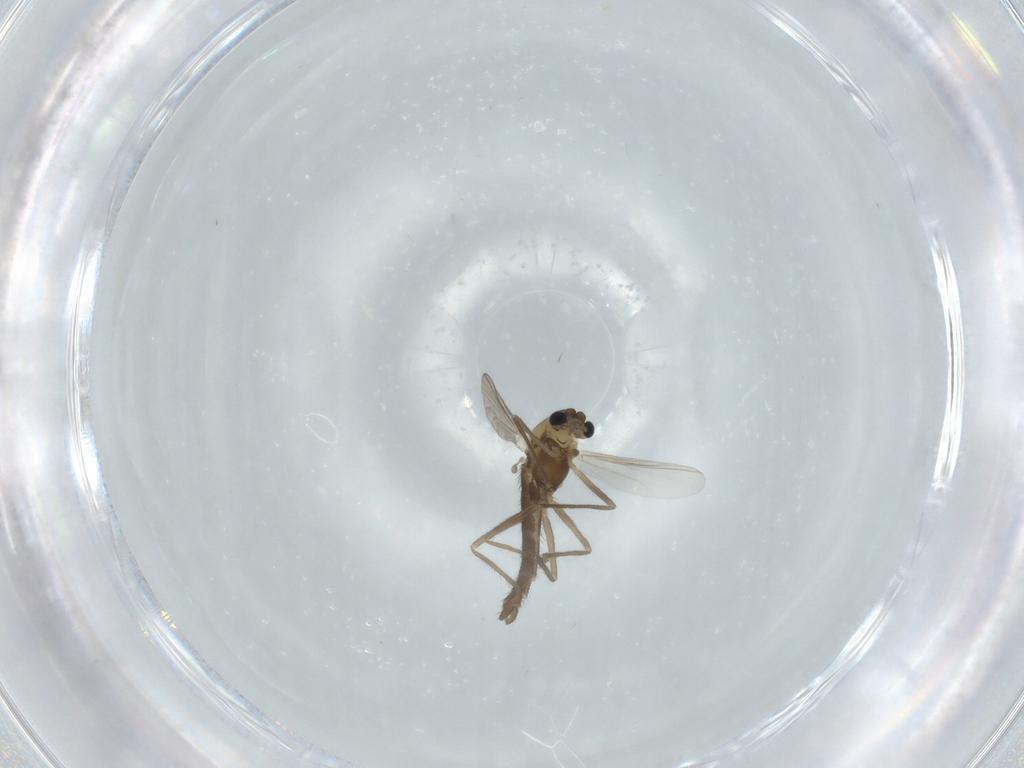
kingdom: Animalia
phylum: Arthropoda
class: Insecta
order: Diptera
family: Chironomidae
